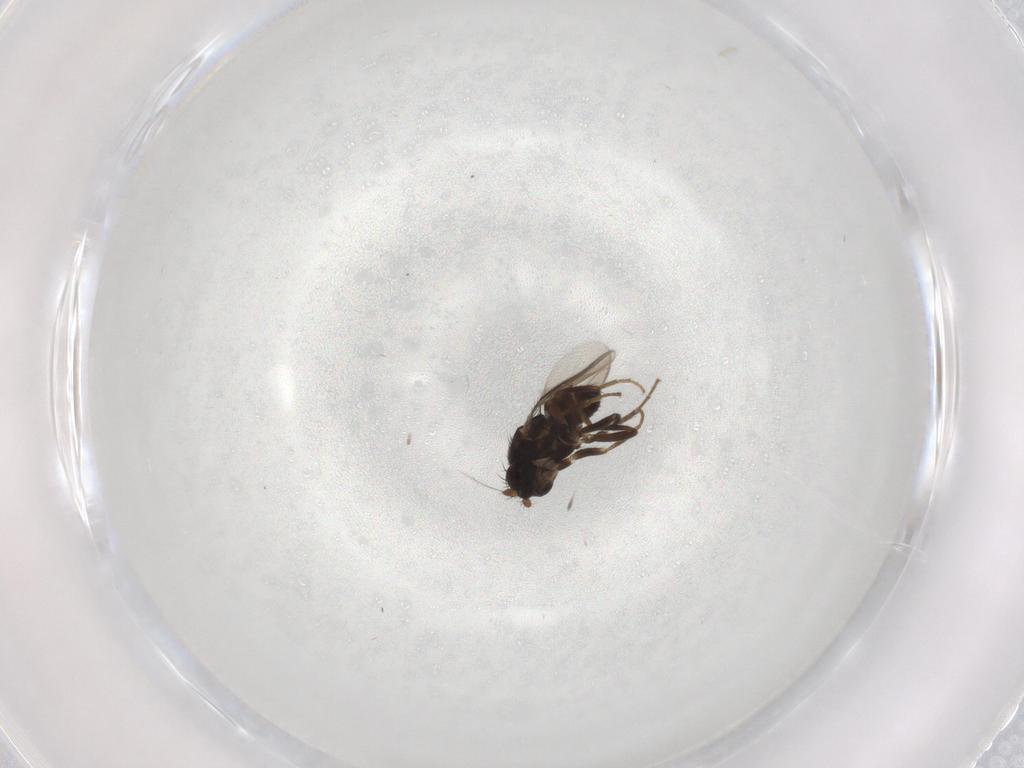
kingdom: Animalia
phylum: Arthropoda
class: Insecta
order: Diptera
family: Sphaeroceridae
